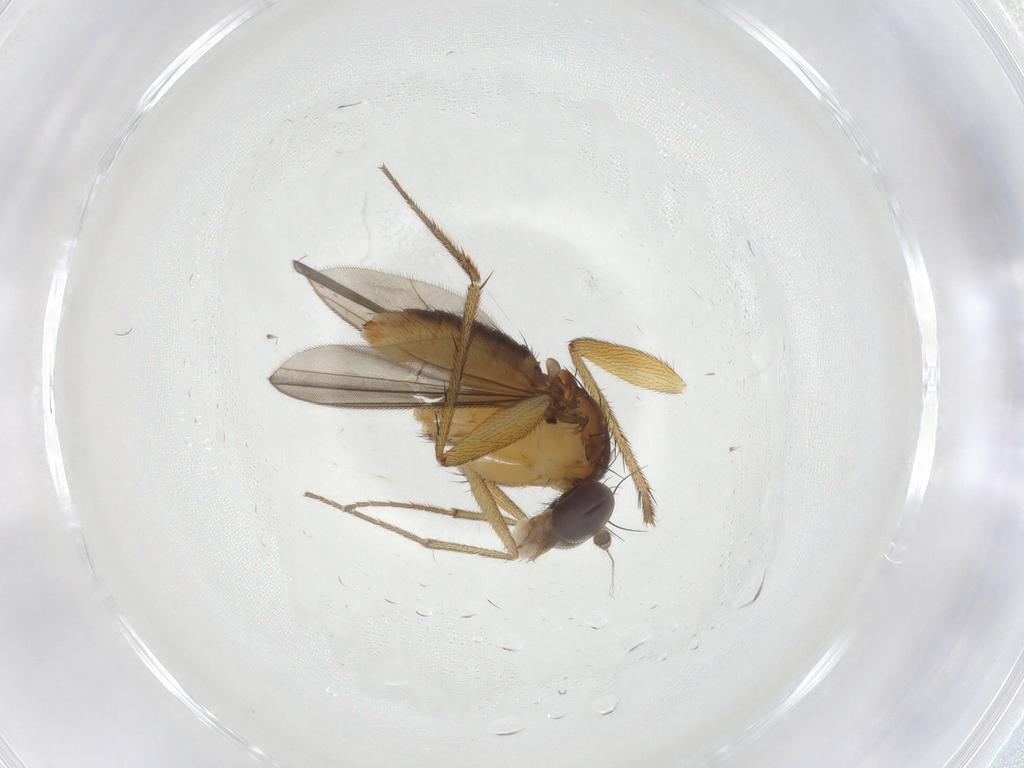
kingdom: Animalia
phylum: Arthropoda
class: Insecta
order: Diptera
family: Dolichopodidae
